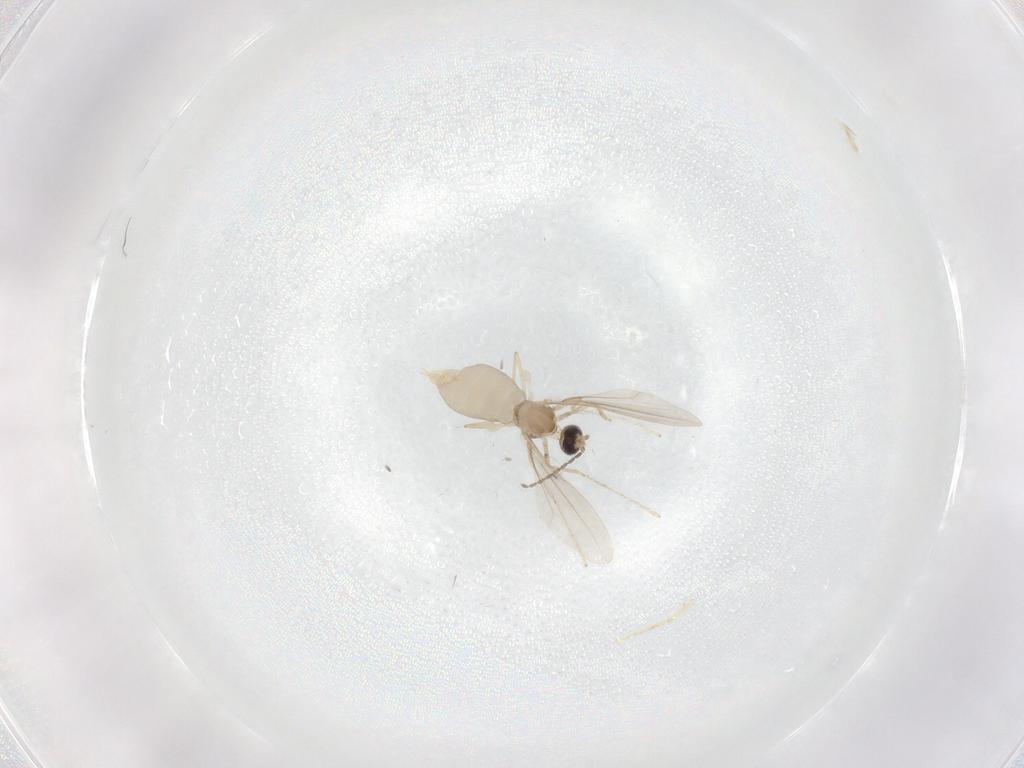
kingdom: Animalia
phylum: Arthropoda
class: Insecta
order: Diptera
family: Cecidomyiidae
